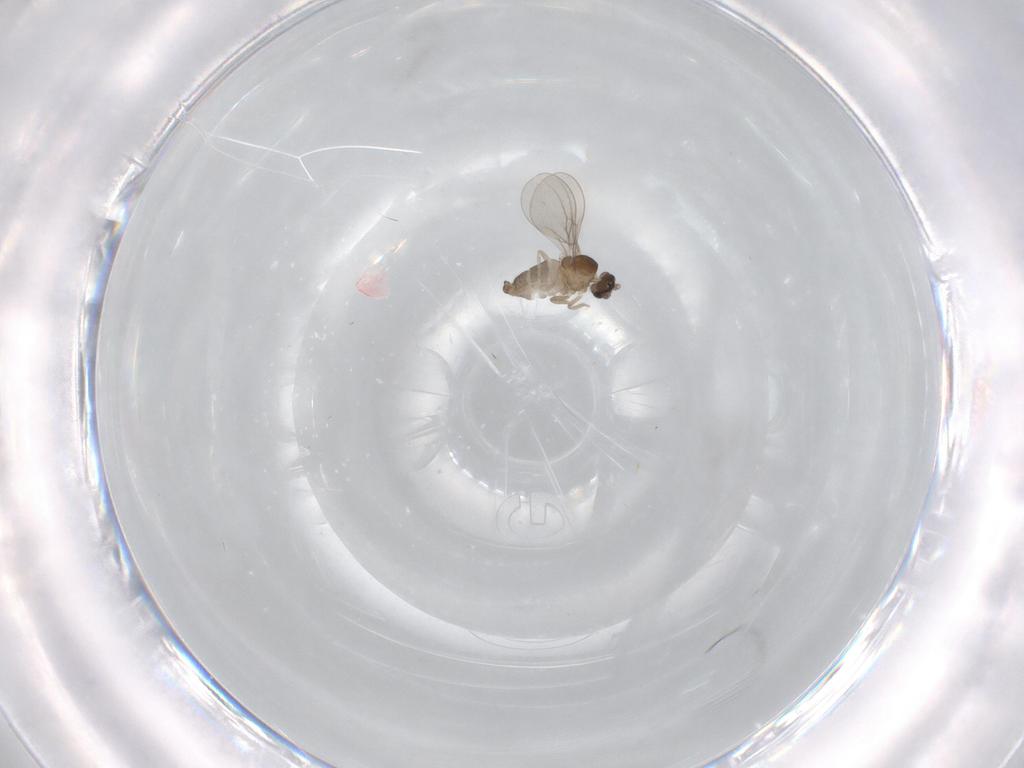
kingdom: Animalia
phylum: Arthropoda
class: Insecta
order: Diptera
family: Cecidomyiidae
